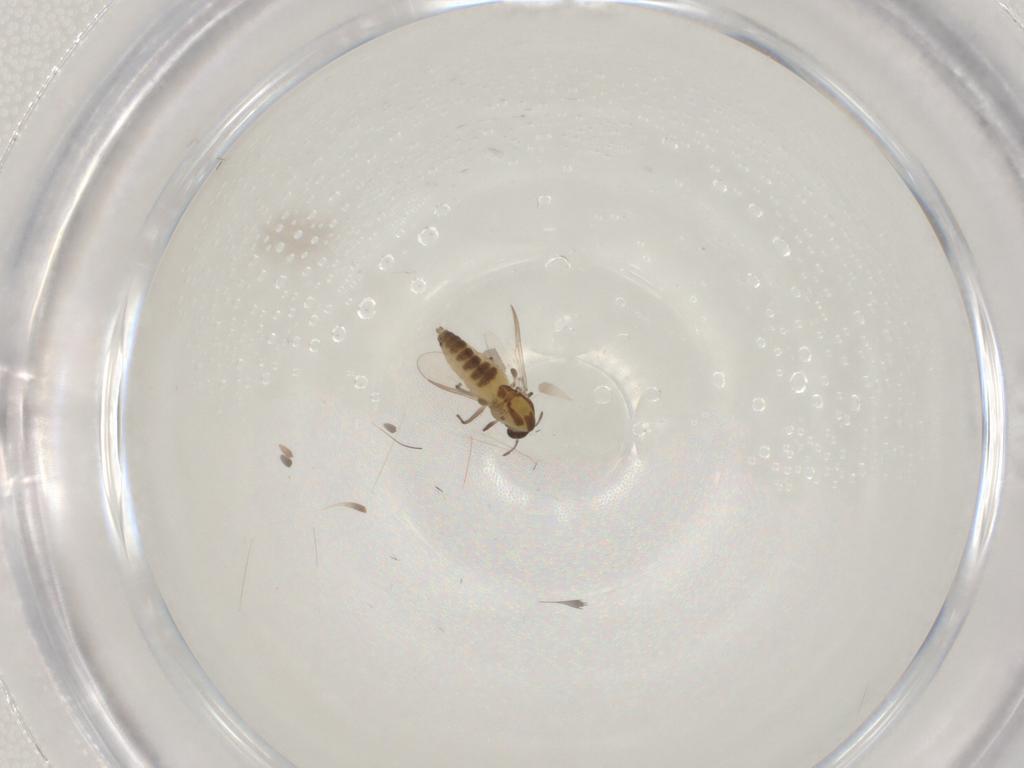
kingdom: Animalia
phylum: Arthropoda
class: Insecta
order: Diptera
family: Chironomidae
